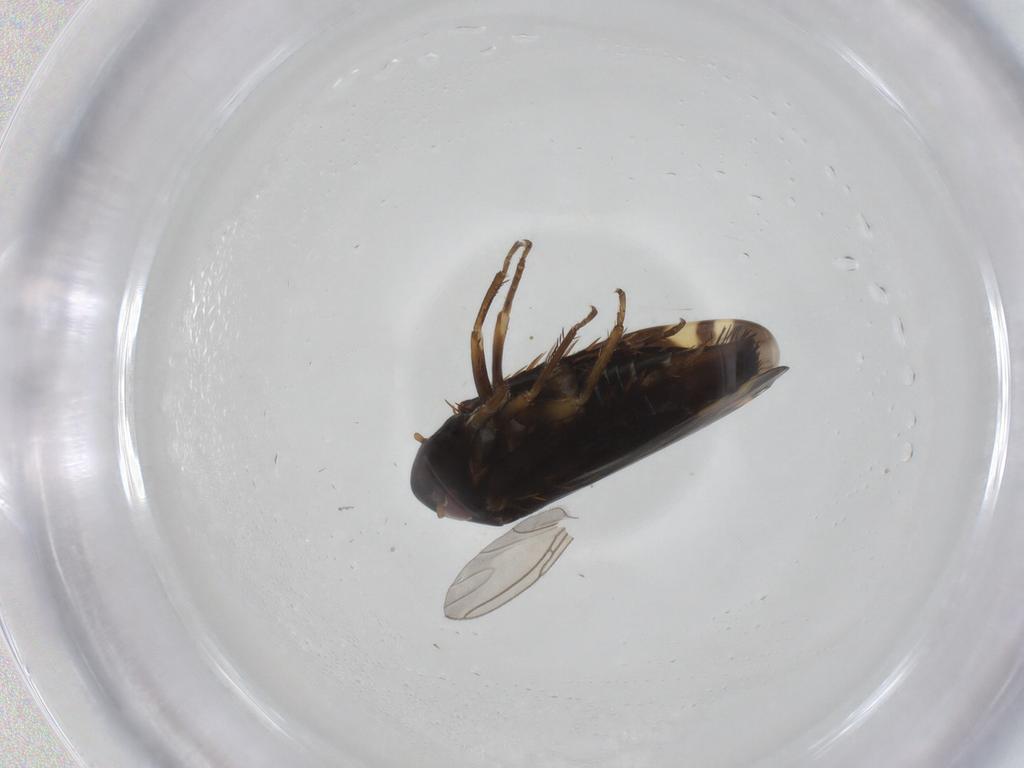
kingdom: Animalia
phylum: Arthropoda
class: Insecta
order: Hemiptera
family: Cicadellidae
